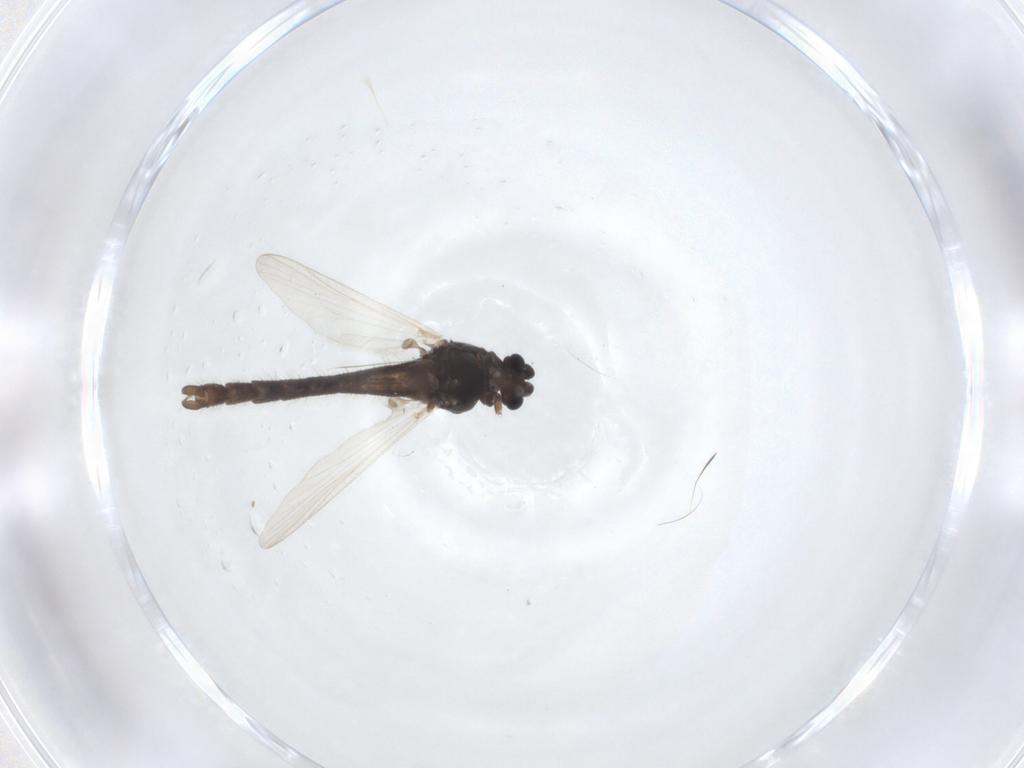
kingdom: Animalia
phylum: Arthropoda
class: Insecta
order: Diptera
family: Chironomidae
